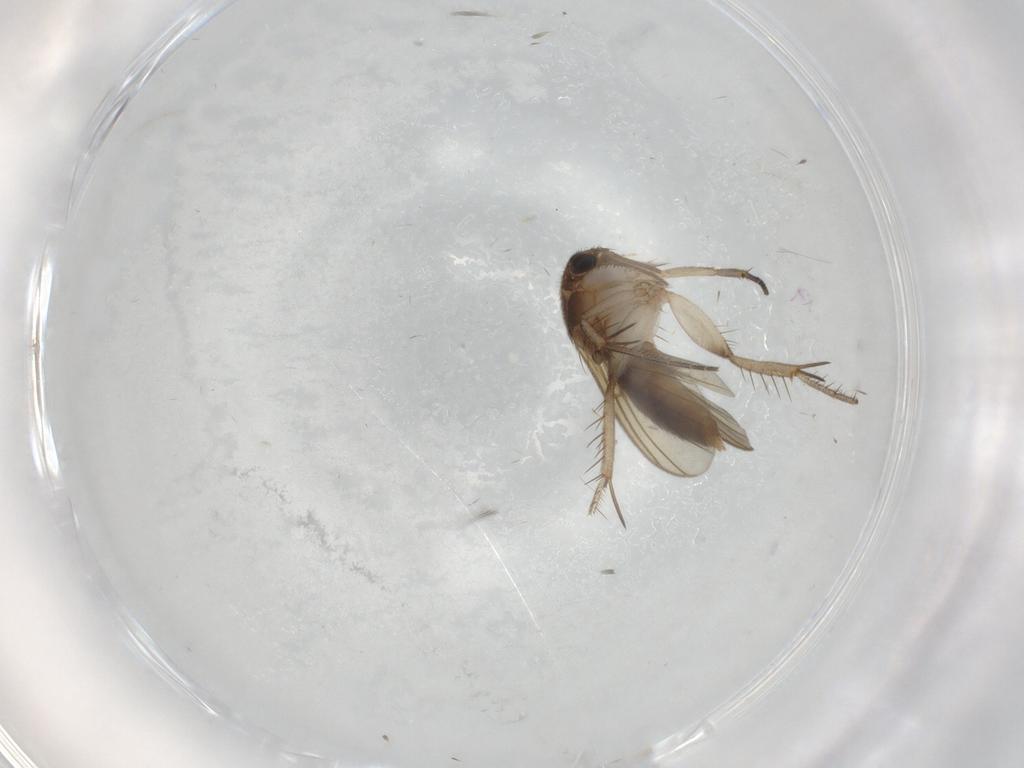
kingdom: Animalia
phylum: Arthropoda
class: Insecta
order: Diptera
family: Mycetophilidae
